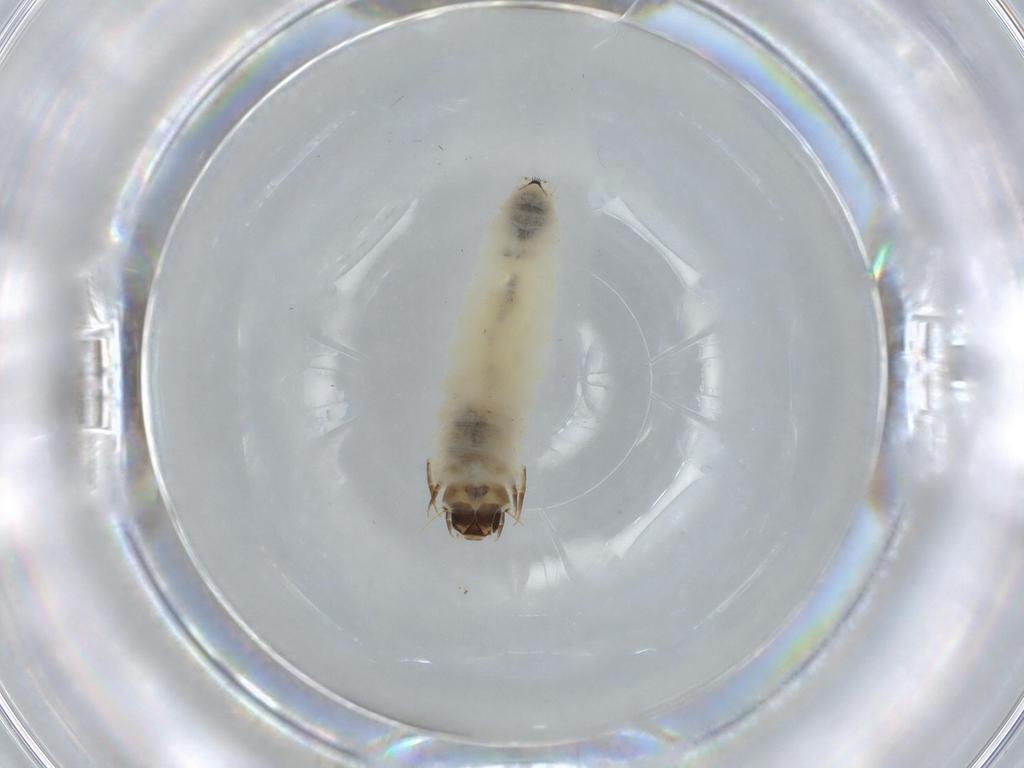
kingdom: Animalia
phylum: Arthropoda
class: Insecta
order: Lepidoptera
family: Tineidae
